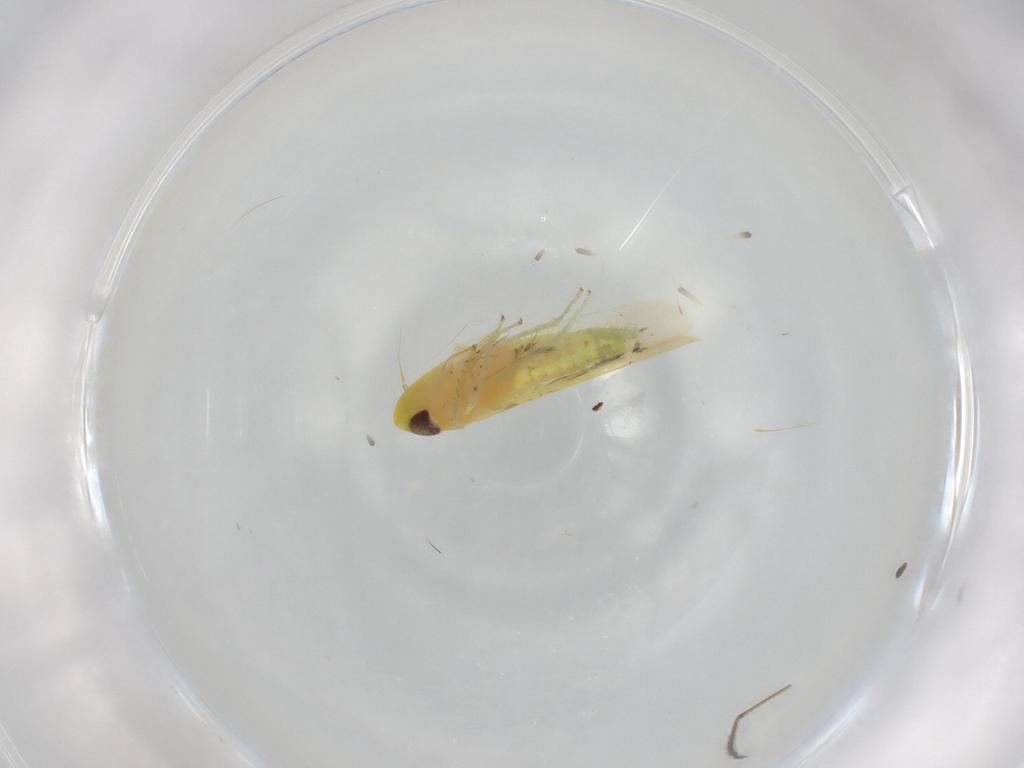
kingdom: Animalia
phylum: Arthropoda
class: Insecta
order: Hemiptera
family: Cicadellidae
